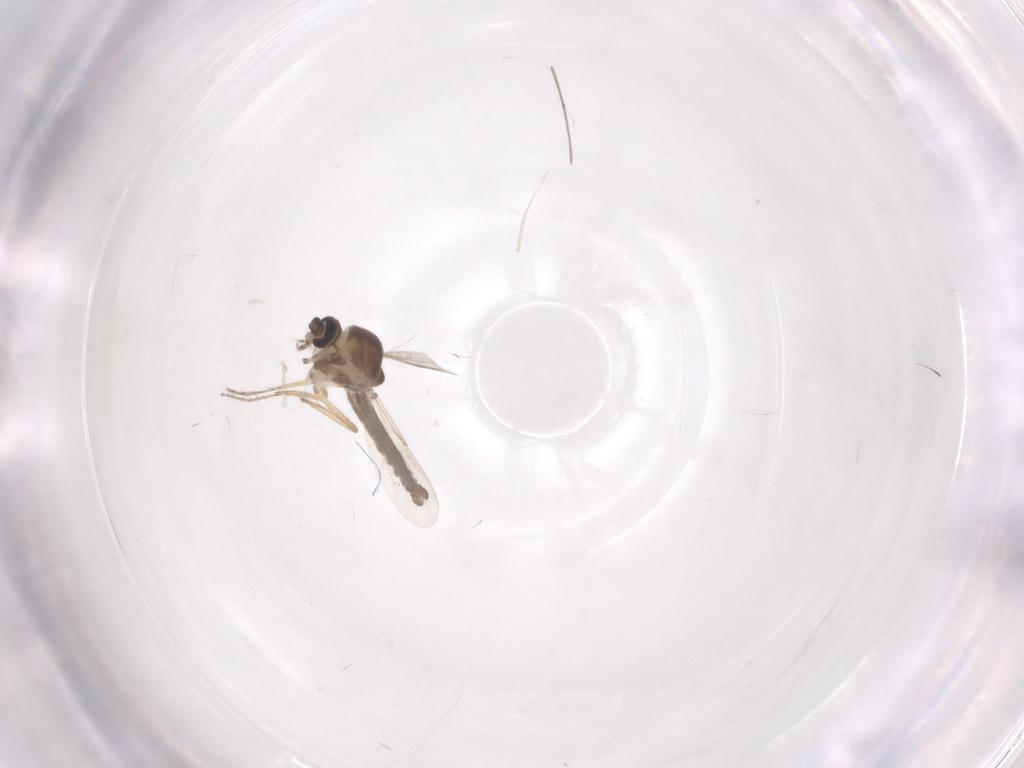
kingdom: Animalia
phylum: Arthropoda
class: Insecta
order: Diptera
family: Ceratopogonidae
